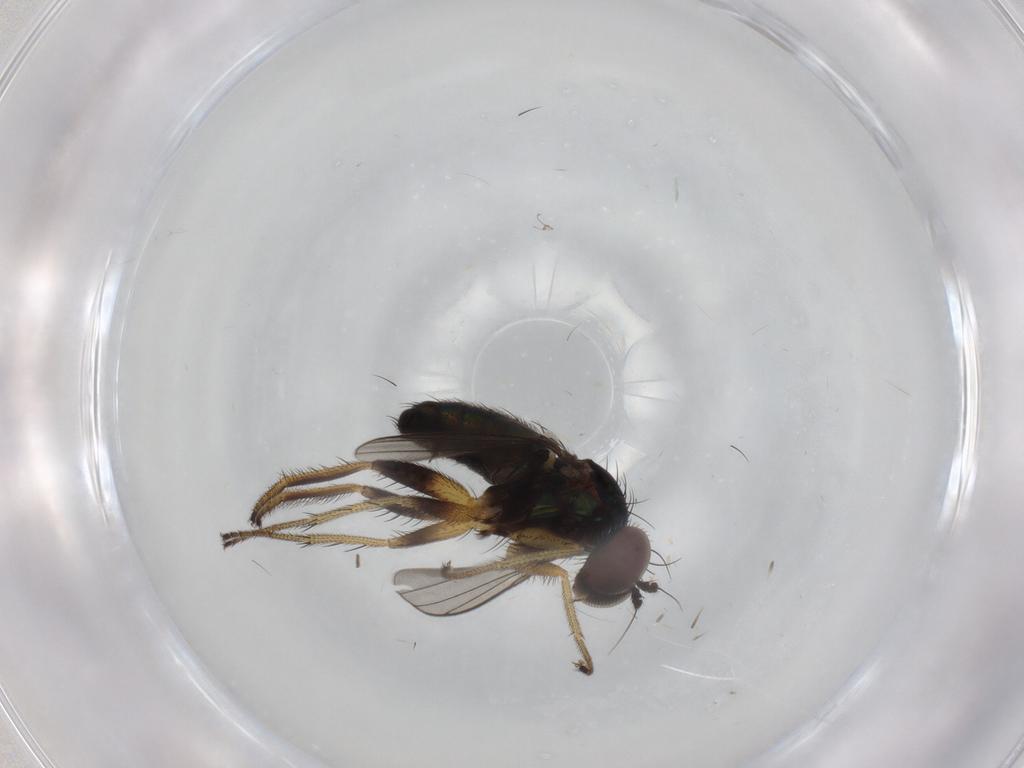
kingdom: Animalia
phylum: Arthropoda
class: Insecta
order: Diptera
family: Dolichopodidae
